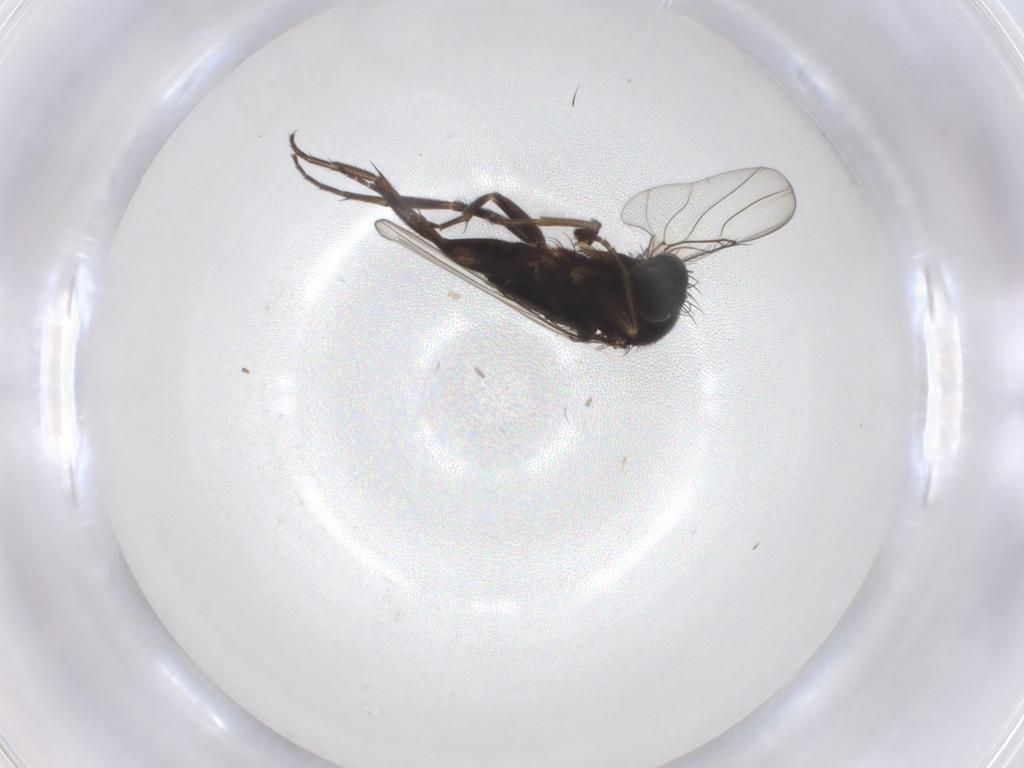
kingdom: Animalia
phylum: Arthropoda
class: Insecta
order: Diptera
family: Phoridae
